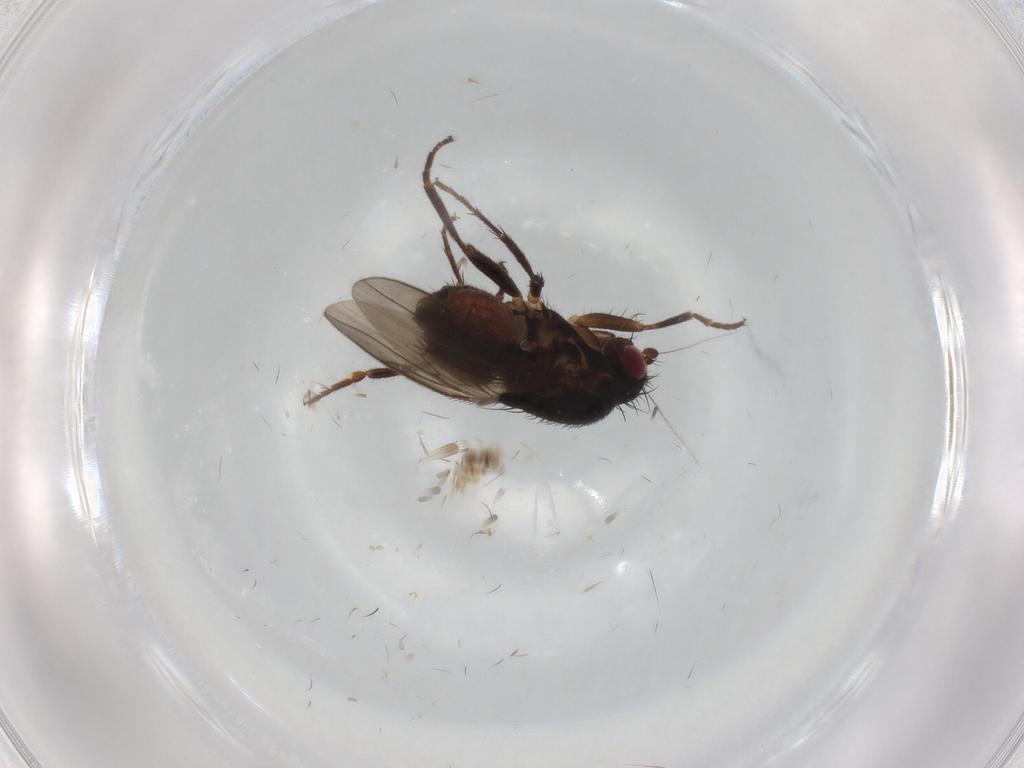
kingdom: Animalia
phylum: Arthropoda
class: Insecta
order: Diptera
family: Sphaeroceridae
